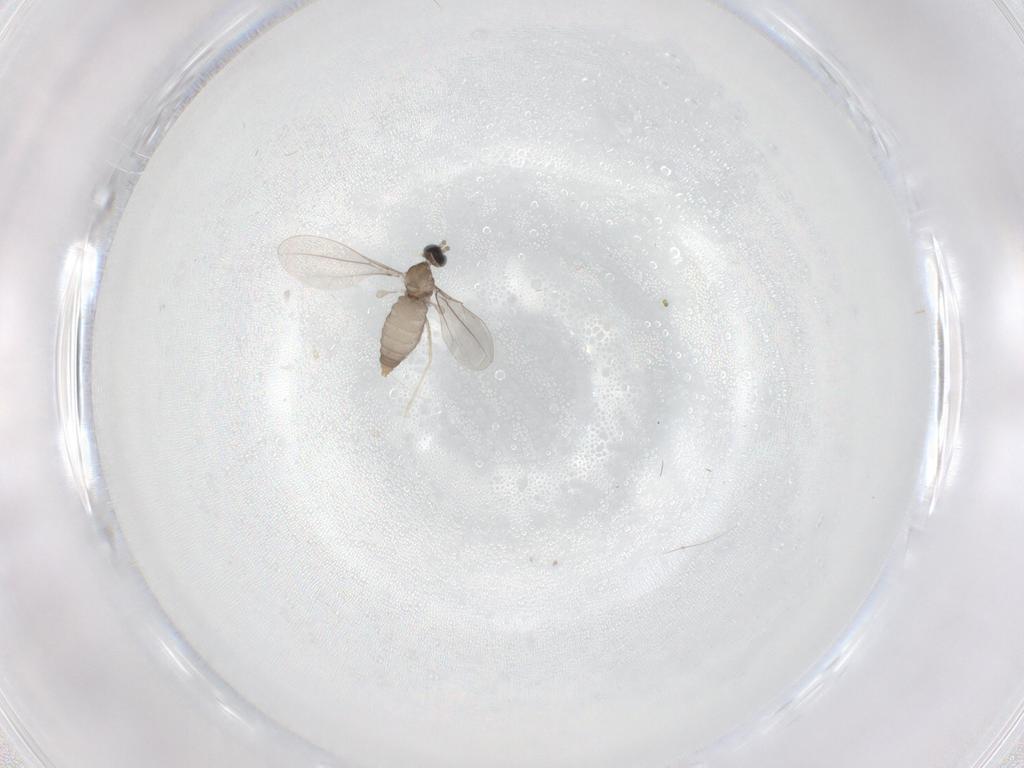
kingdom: Animalia
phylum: Arthropoda
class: Insecta
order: Diptera
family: Cecidomyiidae
